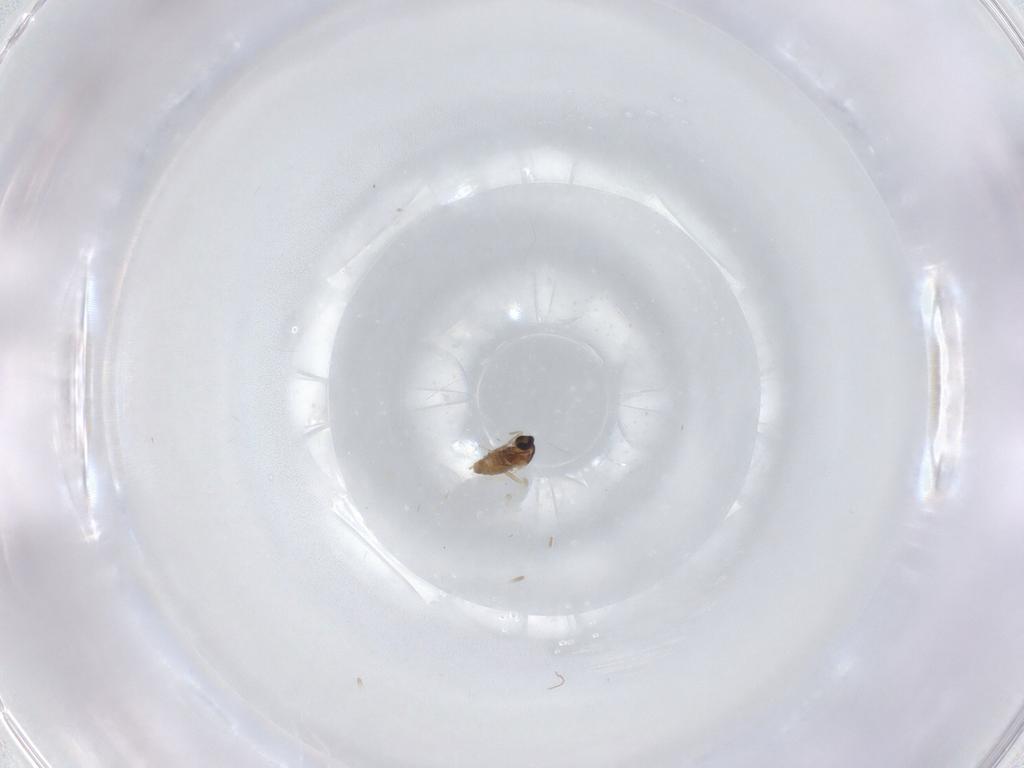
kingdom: Animalia
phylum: Arthropoda
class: Insecta
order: Diptera
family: Cecidomyiidae
